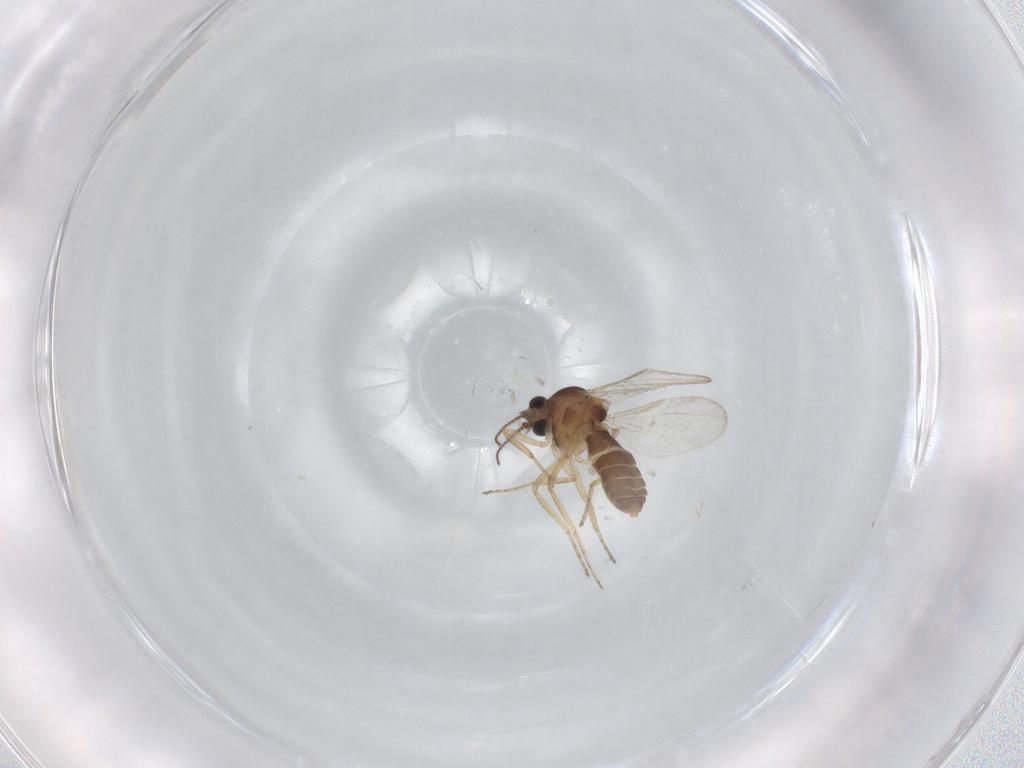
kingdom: Animalia
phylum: Arthropoda
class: Insecta
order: Diptera
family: Ceratopogonidae
